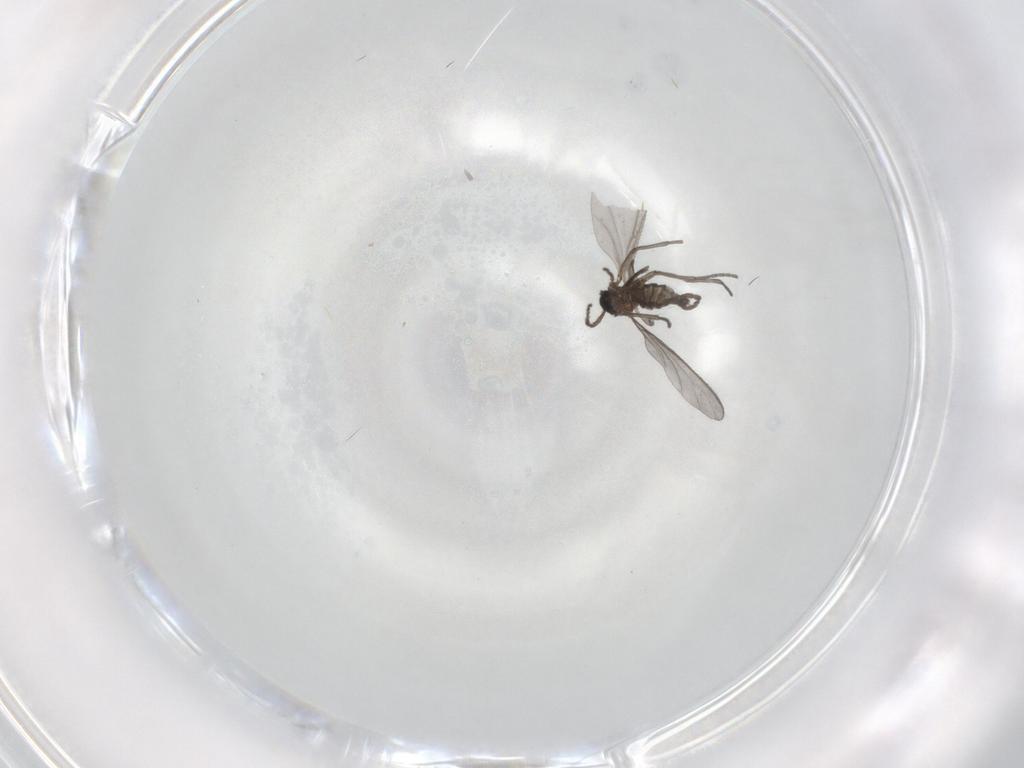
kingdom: Animalia
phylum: Arthropoda
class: Insecta
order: Diptera
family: Sciaridae
